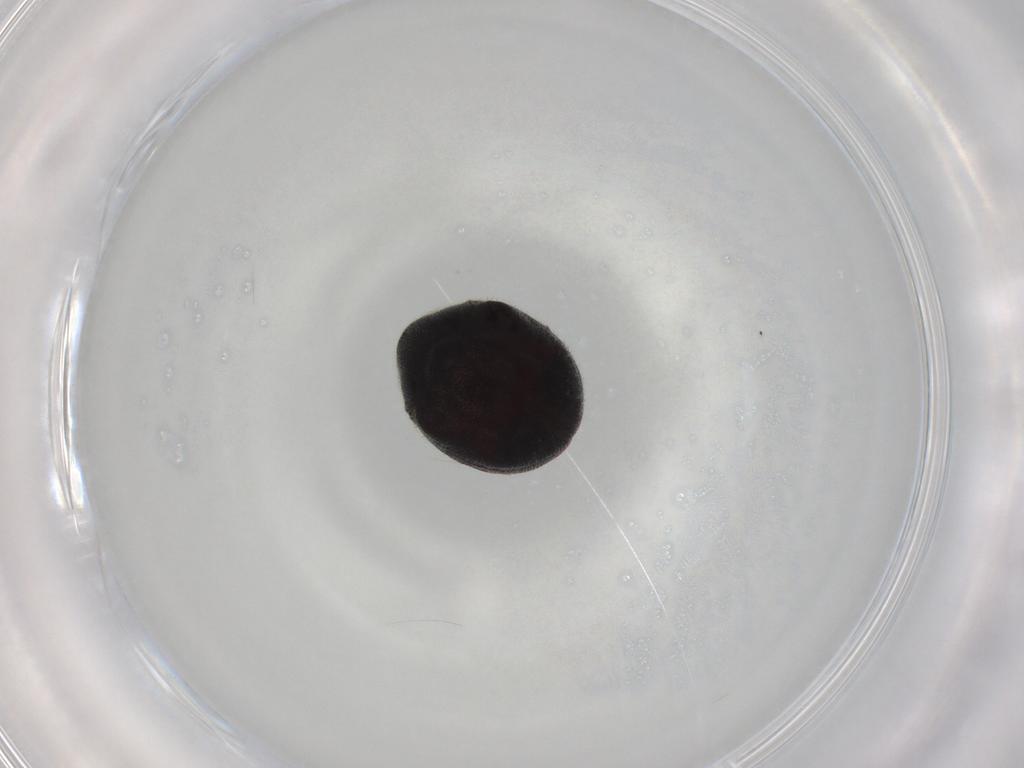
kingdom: Animalia
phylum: Arthropoda
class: Insecta
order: Coleoptera
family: Ptinidae
